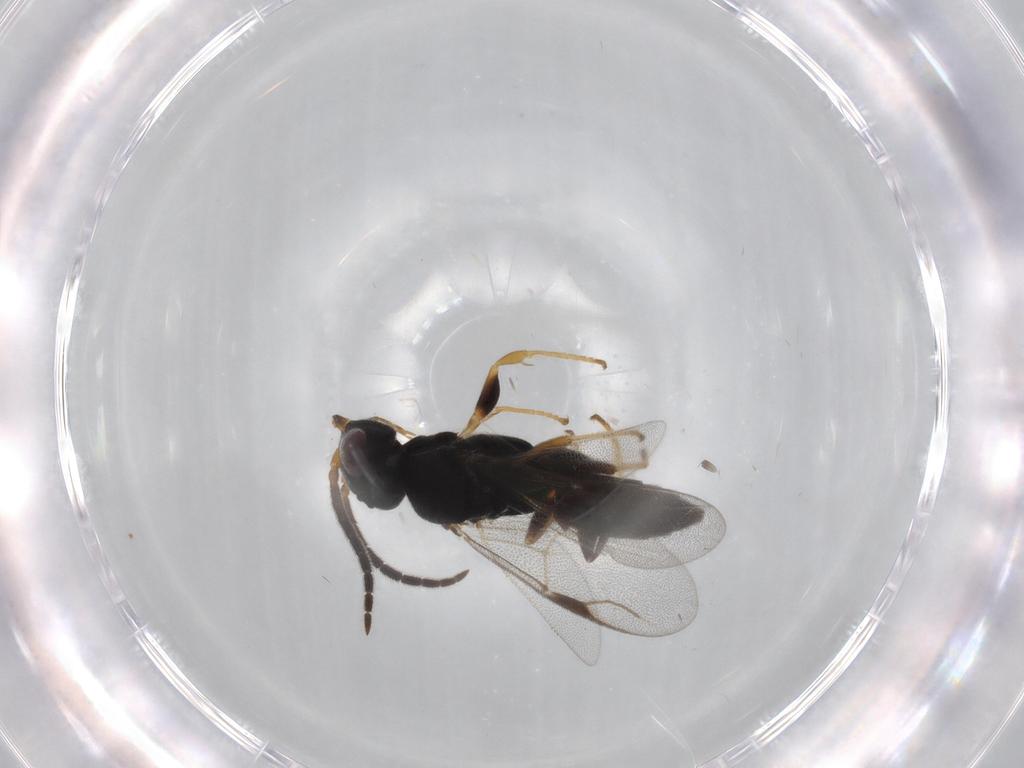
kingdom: Animalia
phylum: Arthropoda
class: Insecta
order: Hymenoptera
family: Dryinidae
